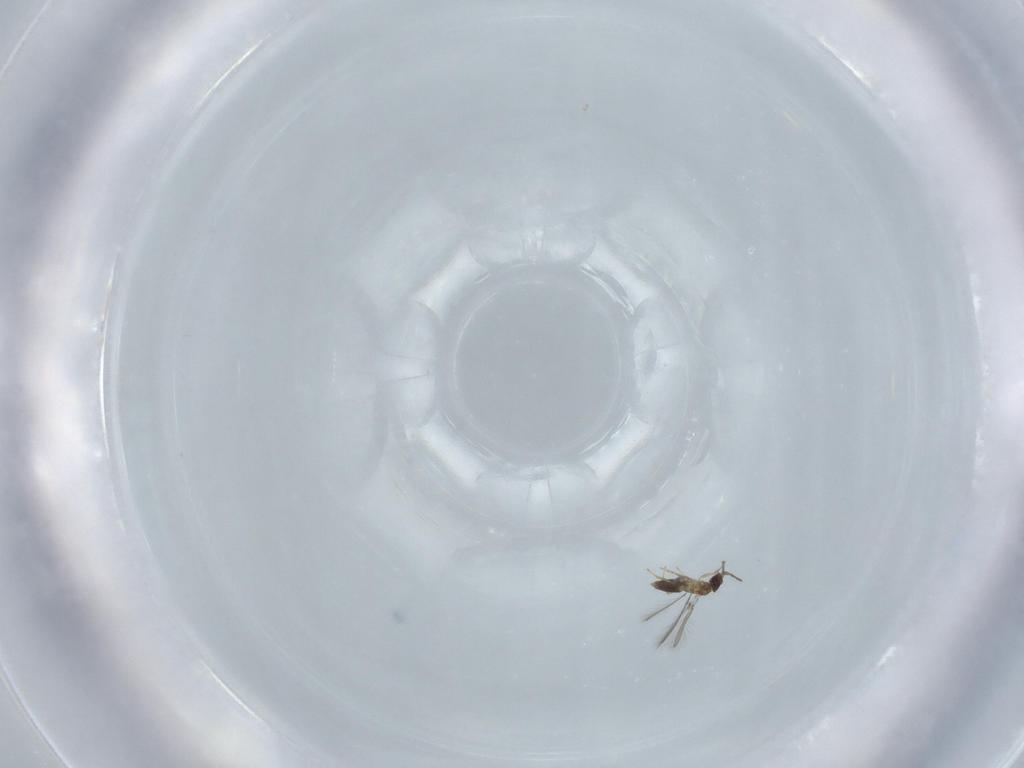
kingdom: Animalia
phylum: Arthropoda
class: Insecta
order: Hymenoptera
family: Mymaridae
